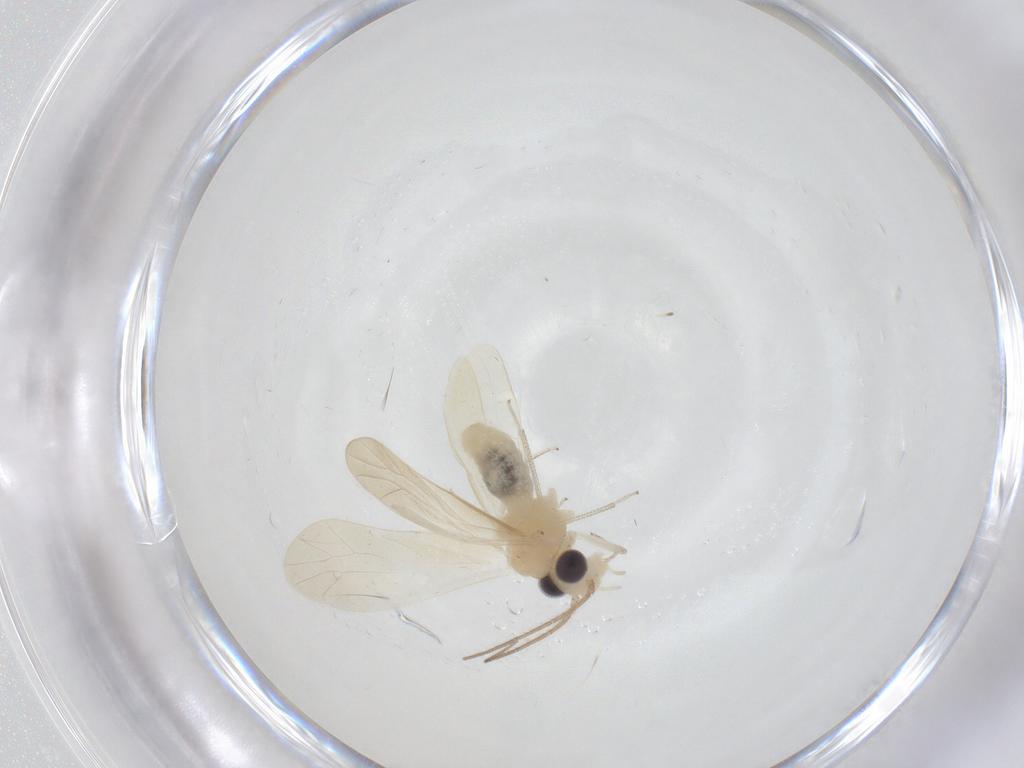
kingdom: Animalia
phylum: Arthropoda
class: Insecta
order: Psocodea
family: Caeciliusidae
